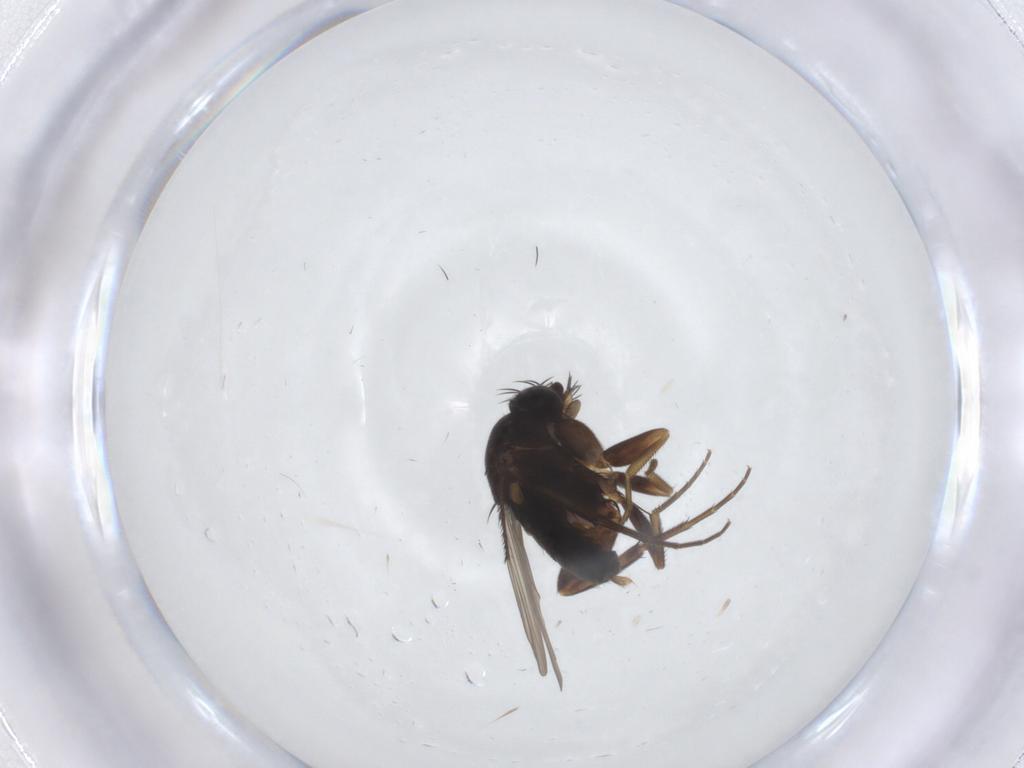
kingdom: Animalia
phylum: Arthropoda
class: Insecta
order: Diptera
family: Phoridae
